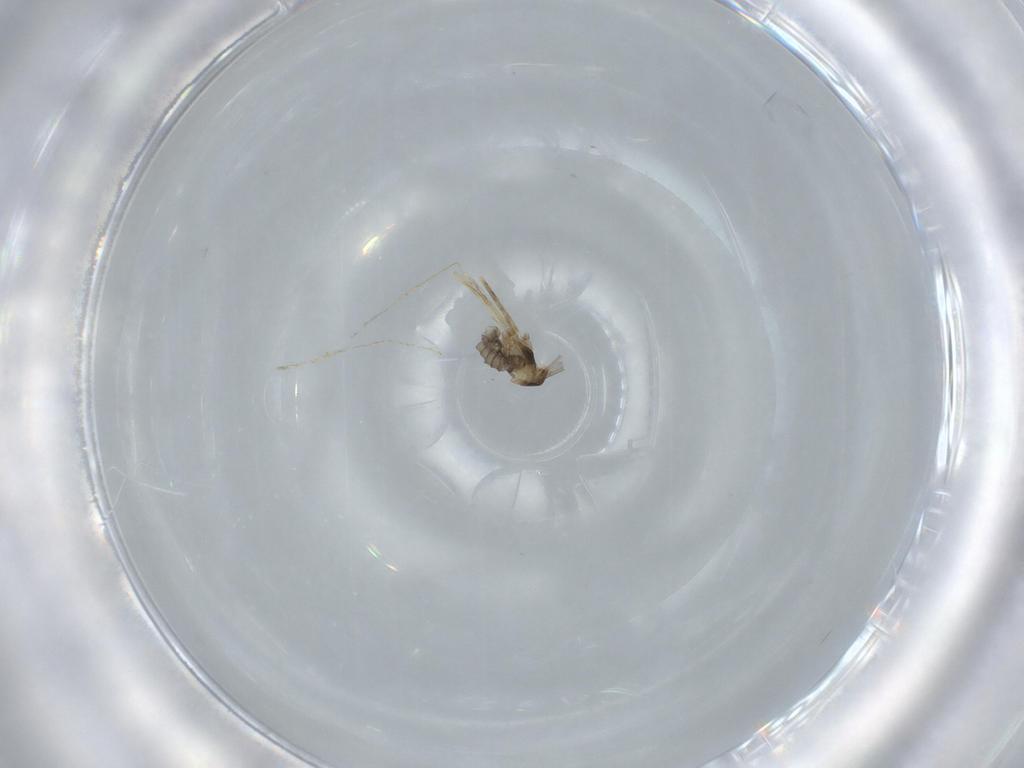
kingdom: Animalia
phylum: Arthropoda
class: Insecta
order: Diptera
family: Cecidomyiidae
